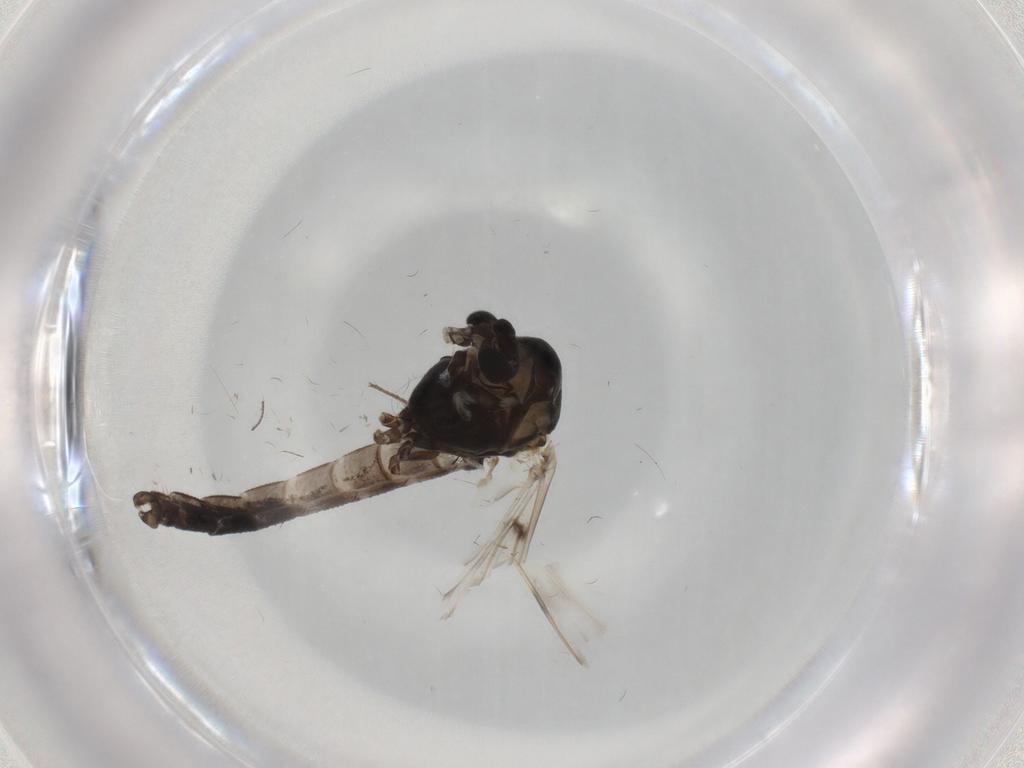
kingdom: Animalia
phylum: Arthropoda
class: Insecta
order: Diptera
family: Chironomidae
